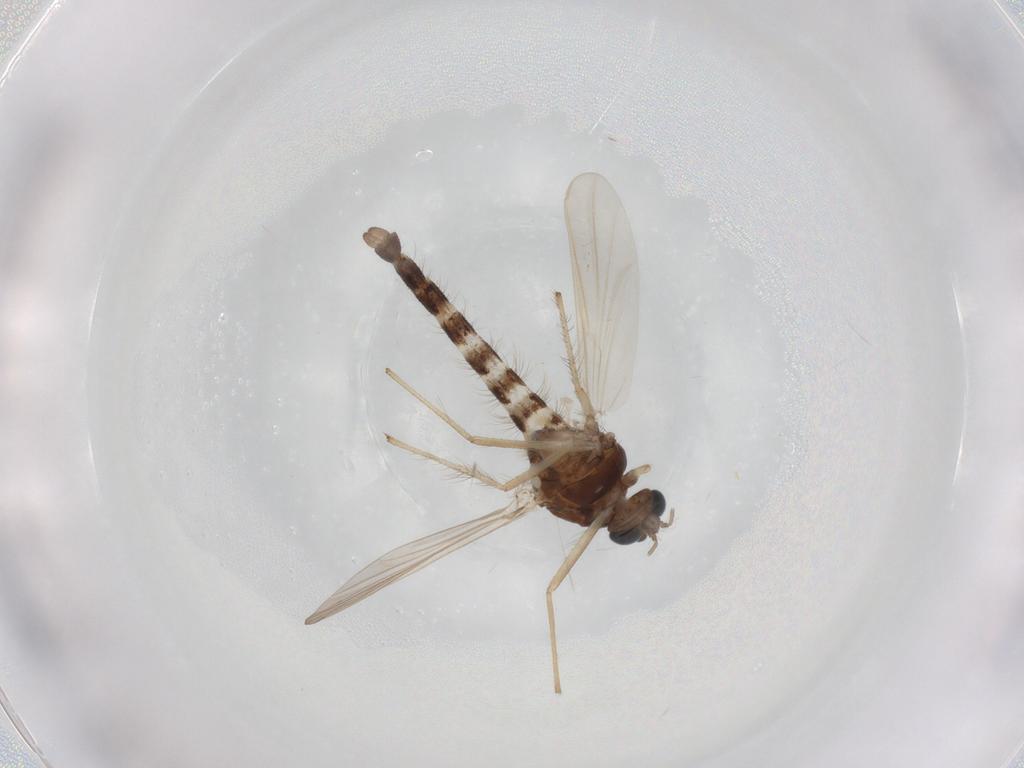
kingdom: Animalia
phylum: Arthropoda
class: Insecta
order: Diptera
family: Chironomidae
